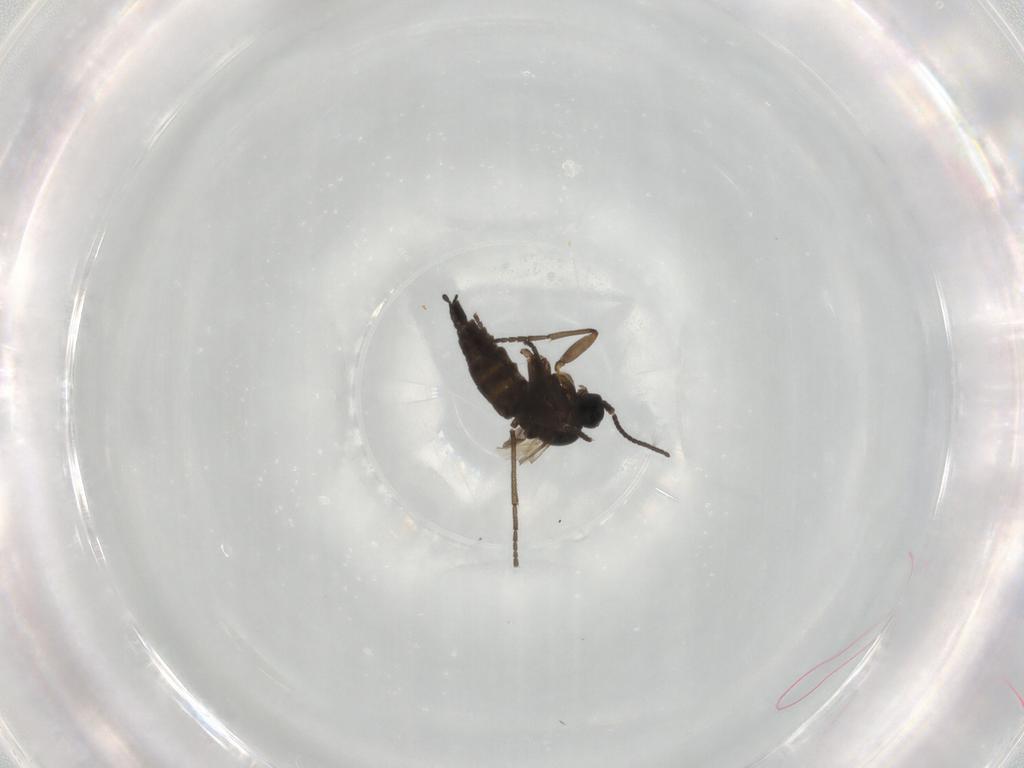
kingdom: Animalia
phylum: Arthropoda
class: Insecta
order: Diptera
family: Sciaridae
